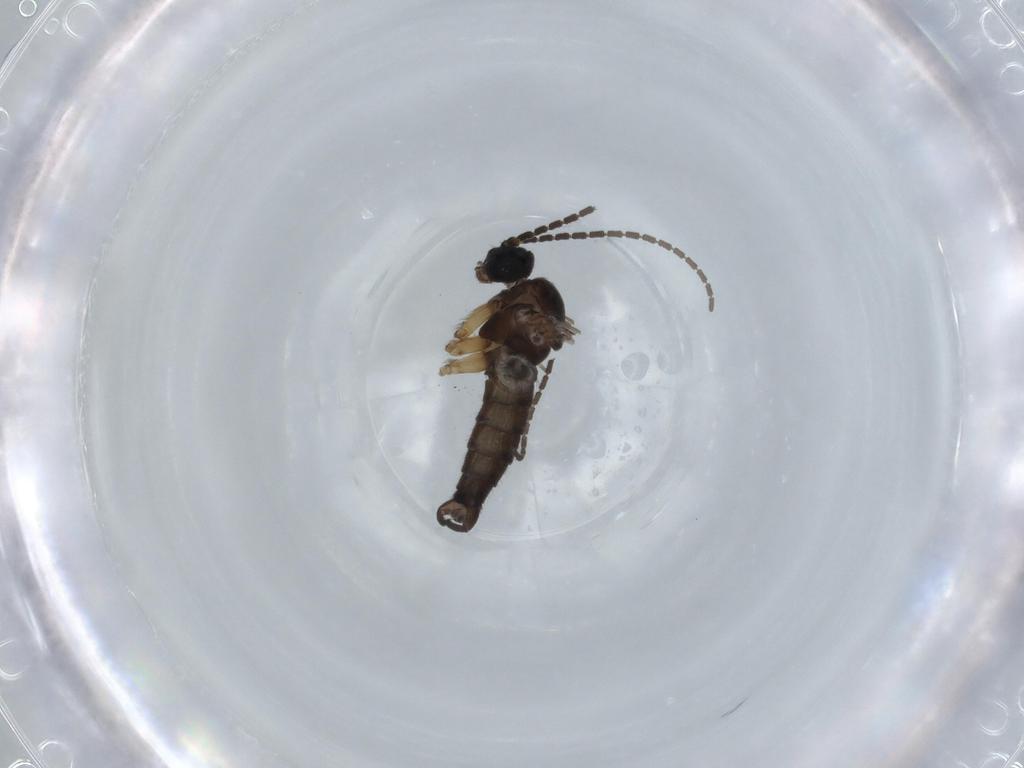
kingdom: Animalia
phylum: Arthropoda
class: Insecta
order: Diptera
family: Sciaridae
